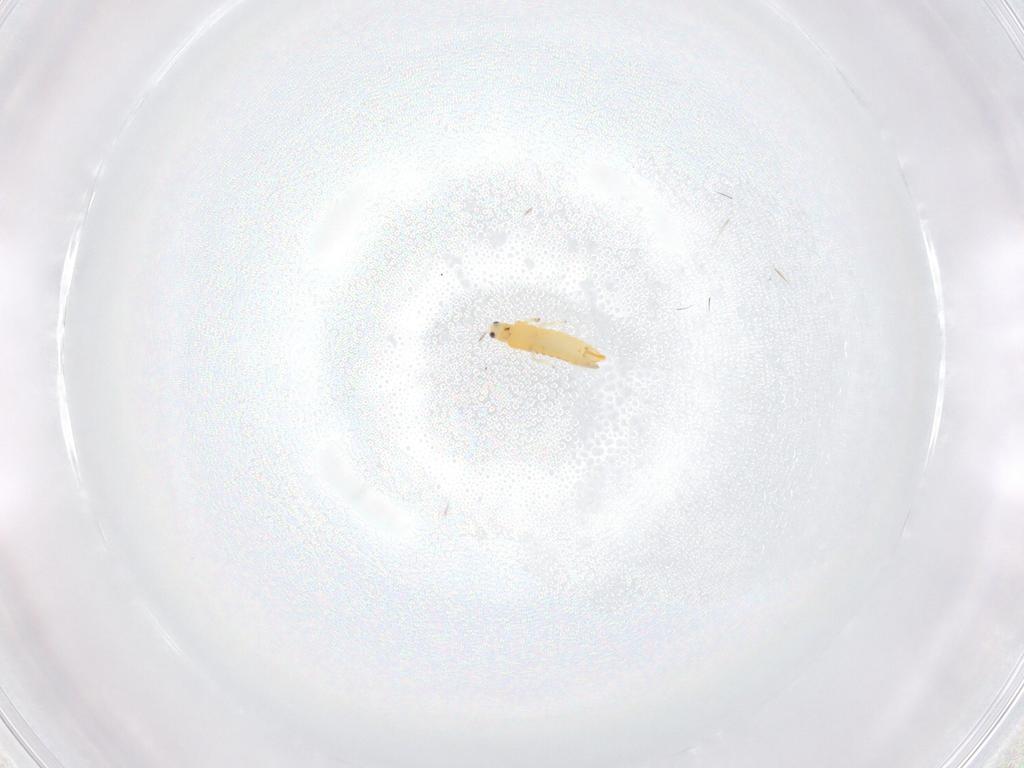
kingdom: Animalia
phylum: Arthropoda
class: Insecta
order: Thysanoptera
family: Thripidae
